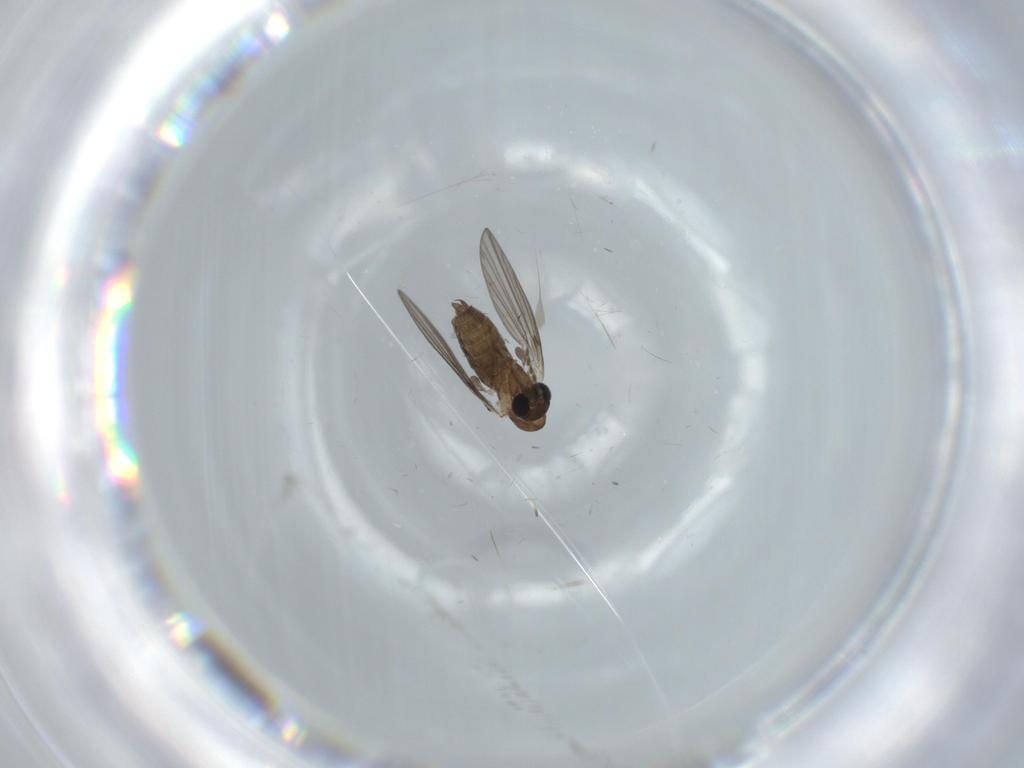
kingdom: Animalia
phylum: Arthropoda
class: Insecta
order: Diptera
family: Psychodidae
